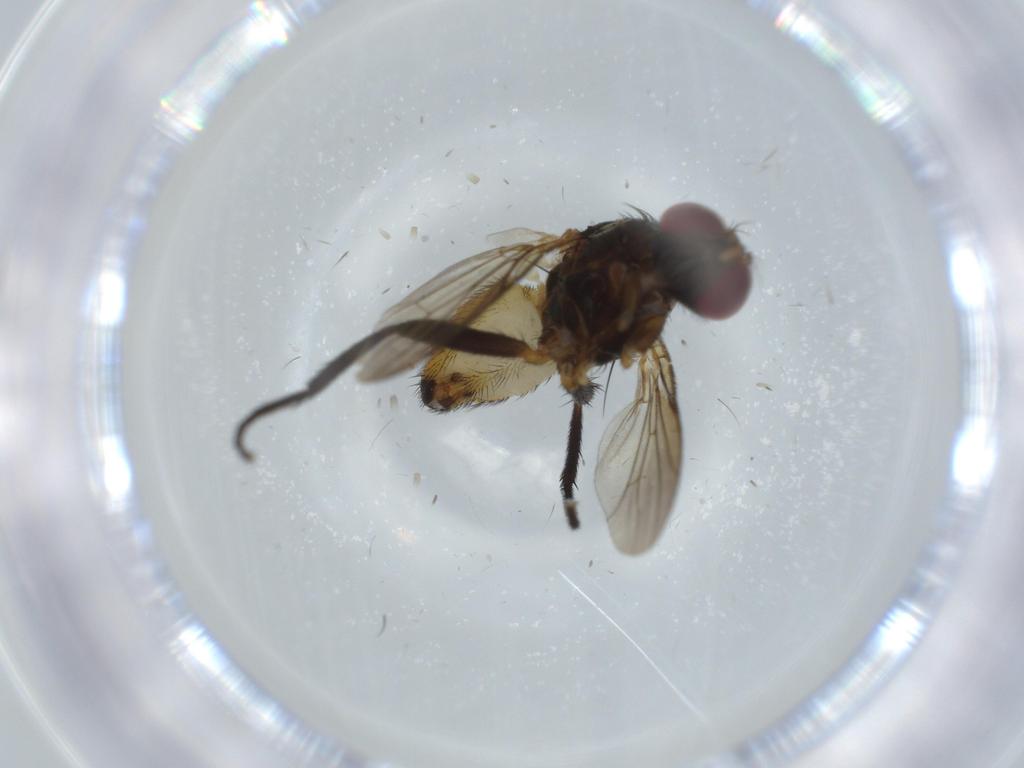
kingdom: Animalia
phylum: Arthropoda
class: Insecta
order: Diptera
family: Anthomyiidae
